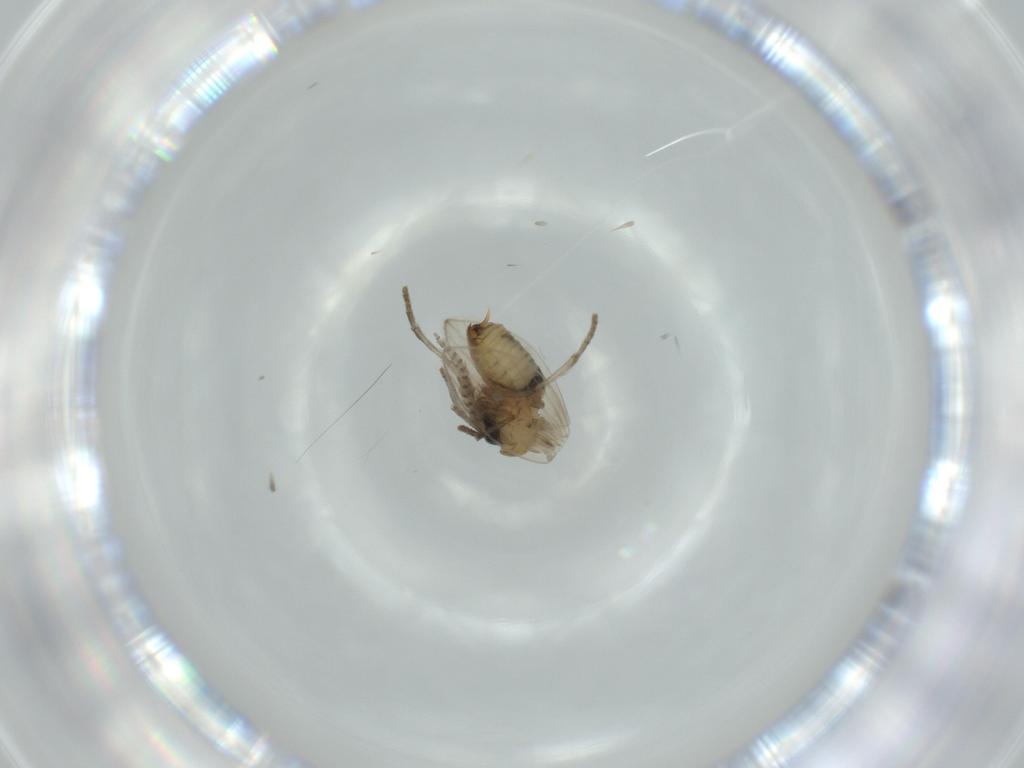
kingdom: Animalia
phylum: Arthropoda
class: Insecta
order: Diptera
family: Psychodidae
